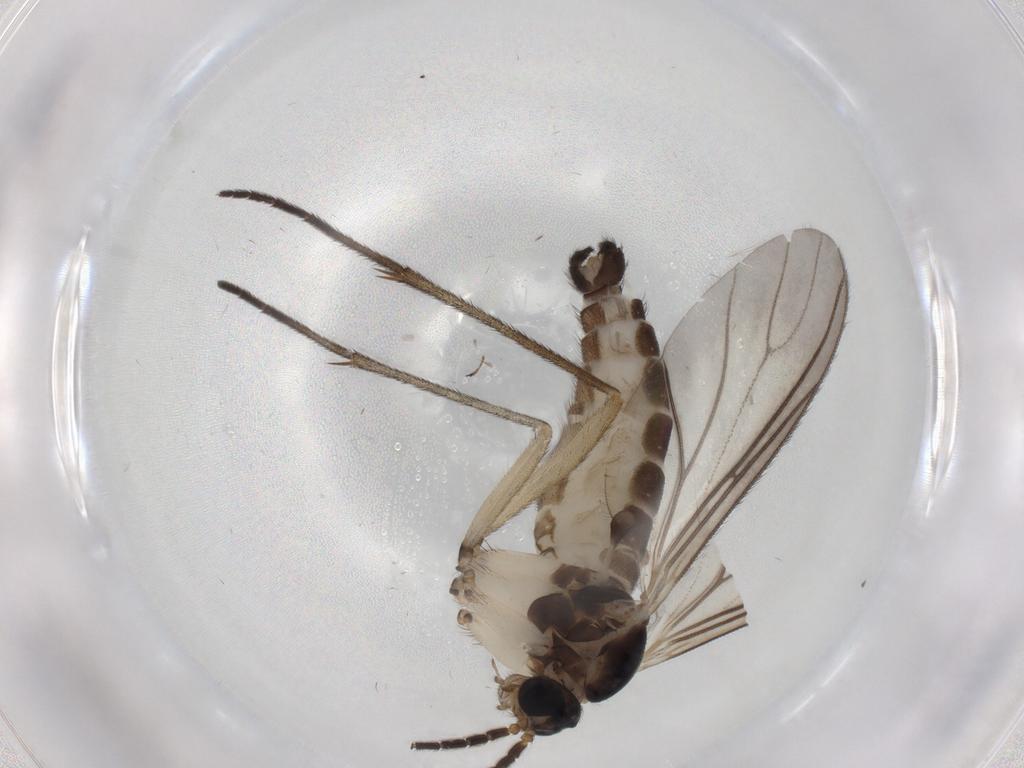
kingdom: Animalia
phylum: Arthropoda
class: Insecta
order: Diptera
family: Sciaridae
